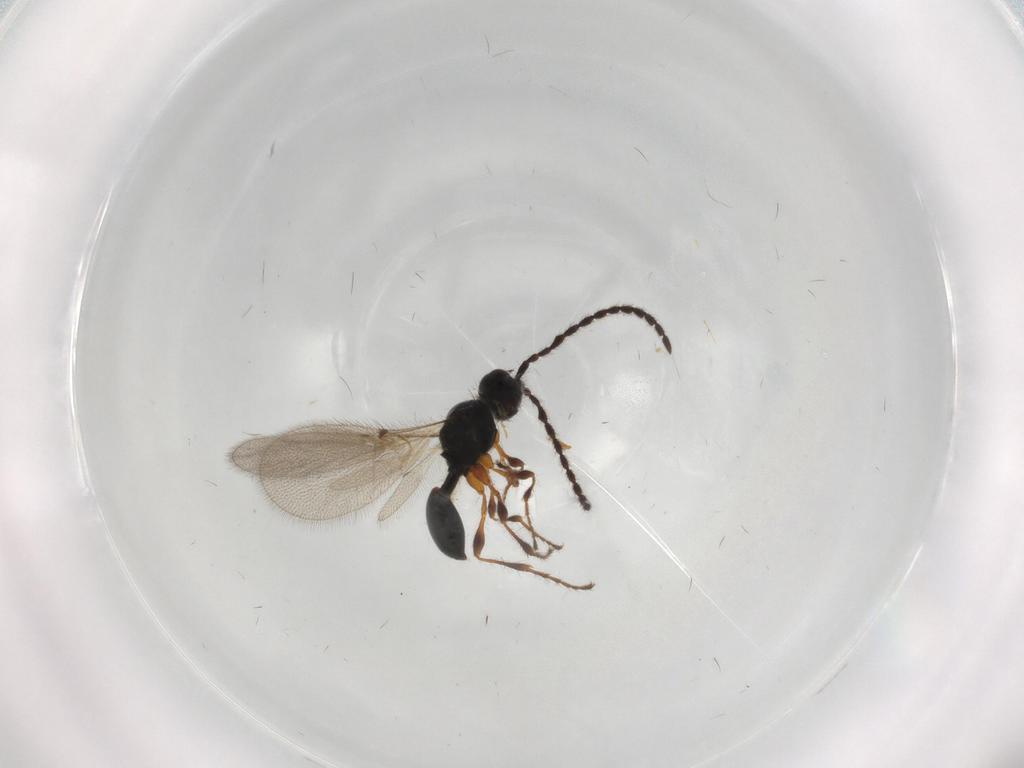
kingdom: Animalia
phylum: Arthropoda
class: Insecta
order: Hymenoptera
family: Diapriidae
